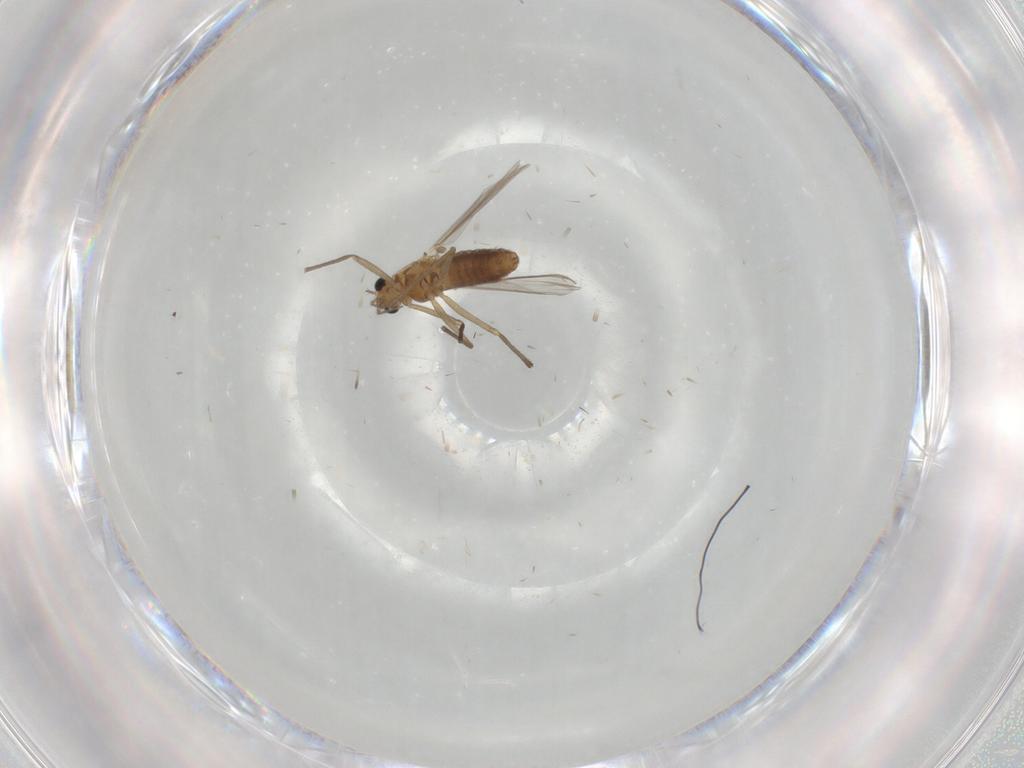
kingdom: Animalia
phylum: Arthropoda
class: Insecta
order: Diptera
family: Chironomidae
